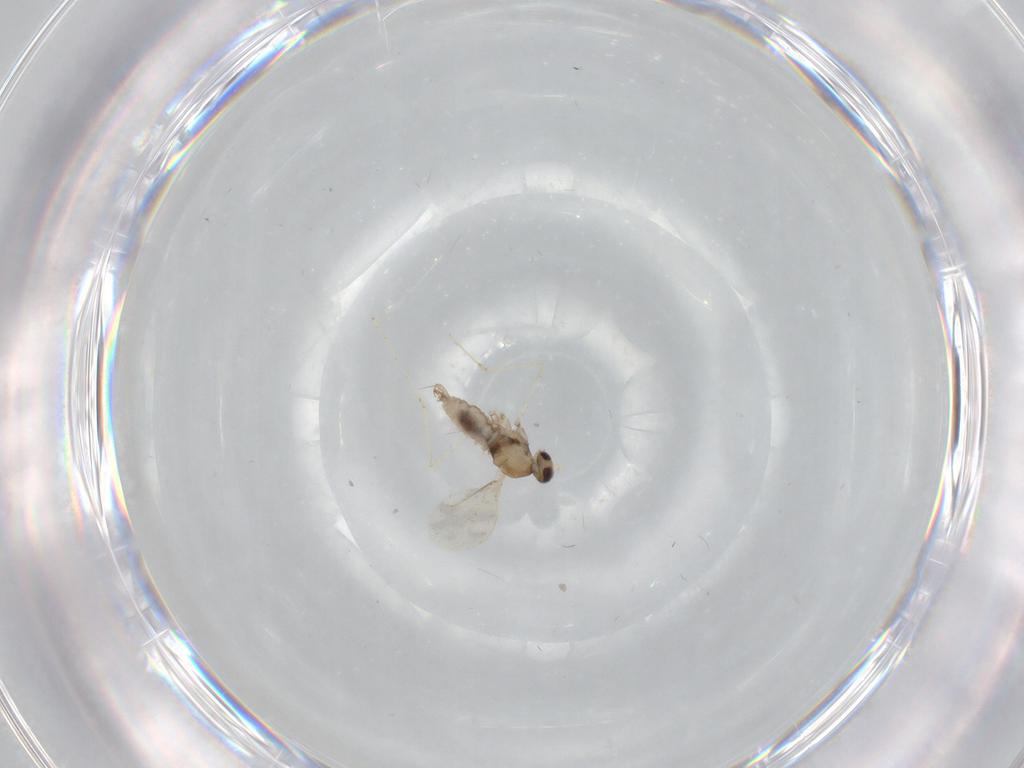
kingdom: Animalia
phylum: Arthropoda
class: Insecta
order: Diptera
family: Cecidomyiidae
